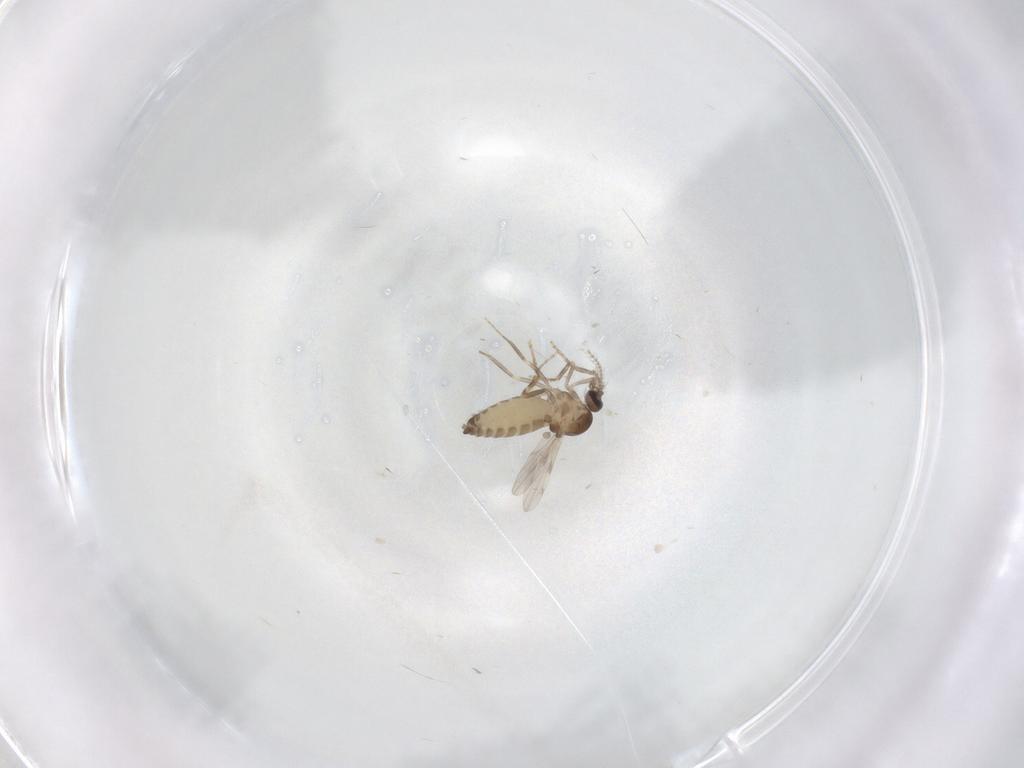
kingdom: Animalia
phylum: Arthropoda
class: Insecta
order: Diptera
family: Ceratopogonidae
